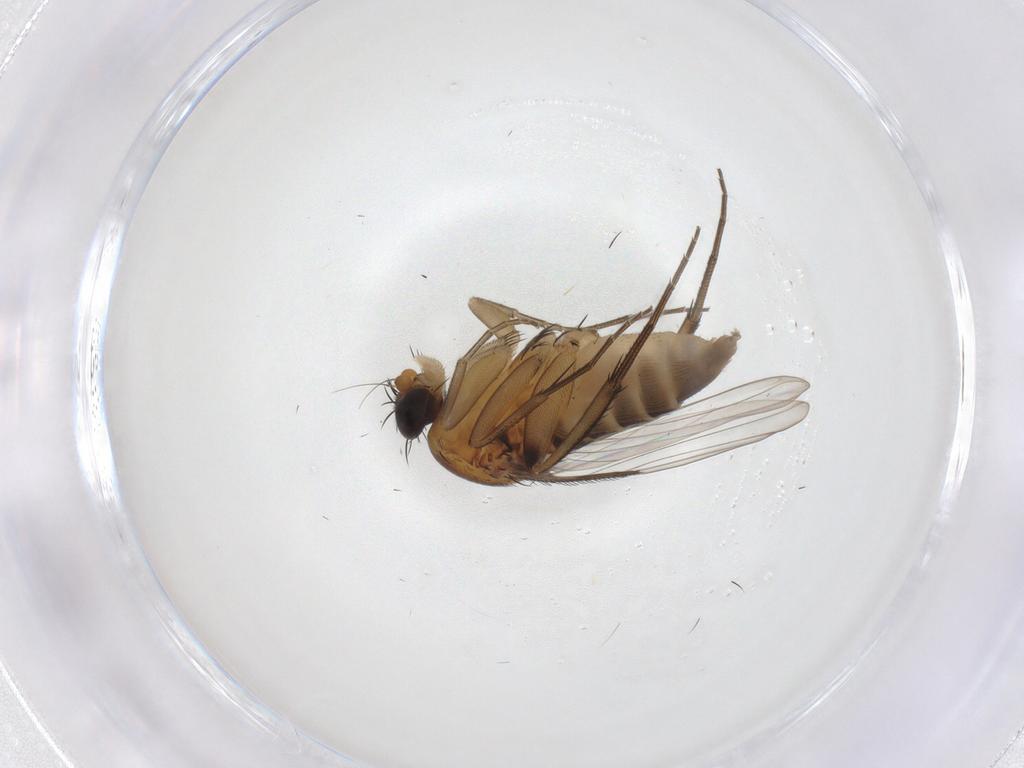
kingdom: Animalia
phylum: Arthropoda
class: Insecta
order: Diptera
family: Phoridae
